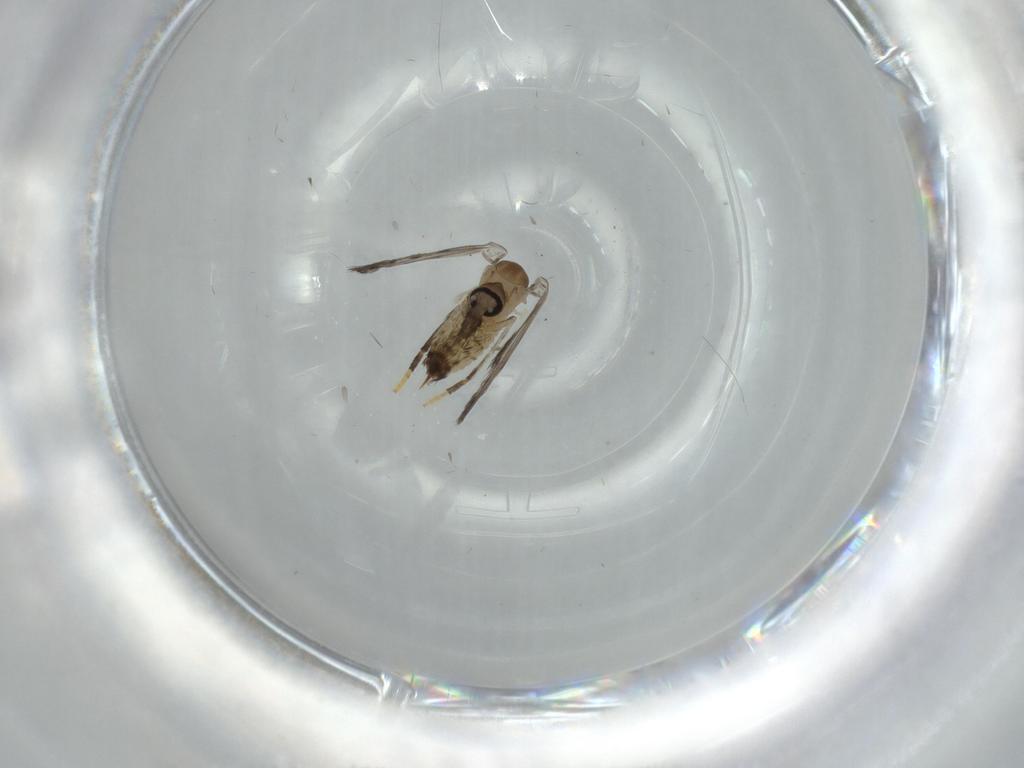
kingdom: Animalia
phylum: Arthropoda
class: Insecta
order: Diptera
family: Psychodidae
